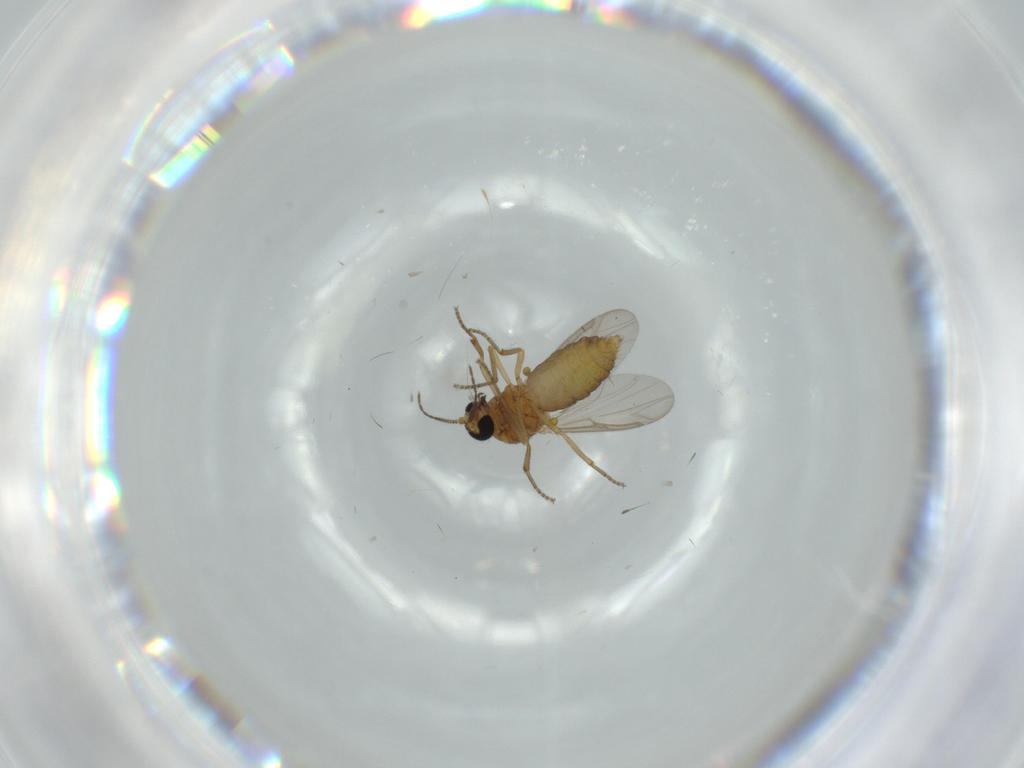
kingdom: Animalia
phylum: Arthropoda
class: Insecta
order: Diptera
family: Ceratopogonidae
